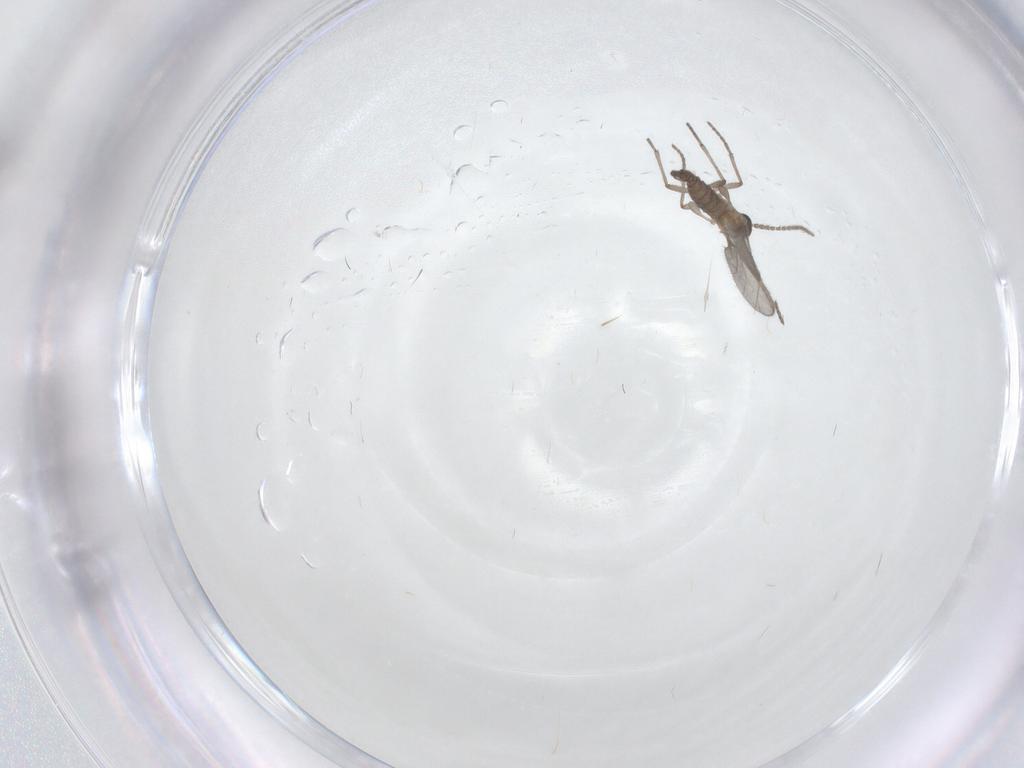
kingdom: Animalia
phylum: Arthropoda
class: Insecta
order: Diptera
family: Sciaridae
